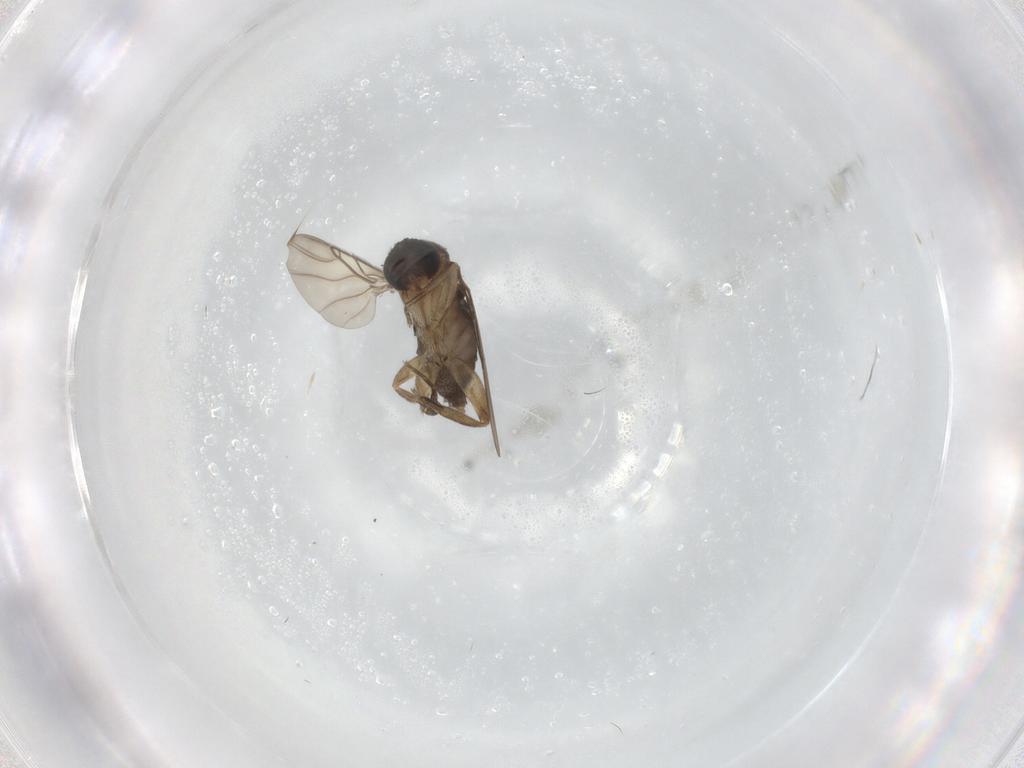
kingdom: Animalia
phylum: Arthropoda
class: Insecta
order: Diptera
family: Phoridae
